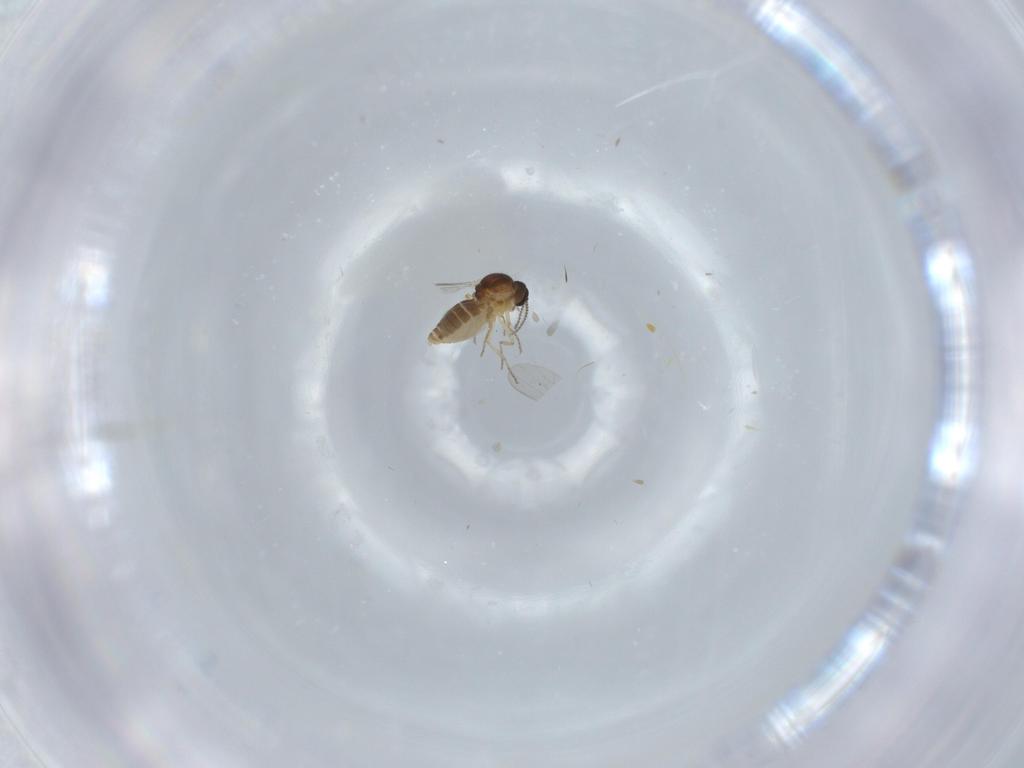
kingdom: Animalia
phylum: Arthropoda
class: Insecta
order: Diptera
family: Ceratopogonidae
